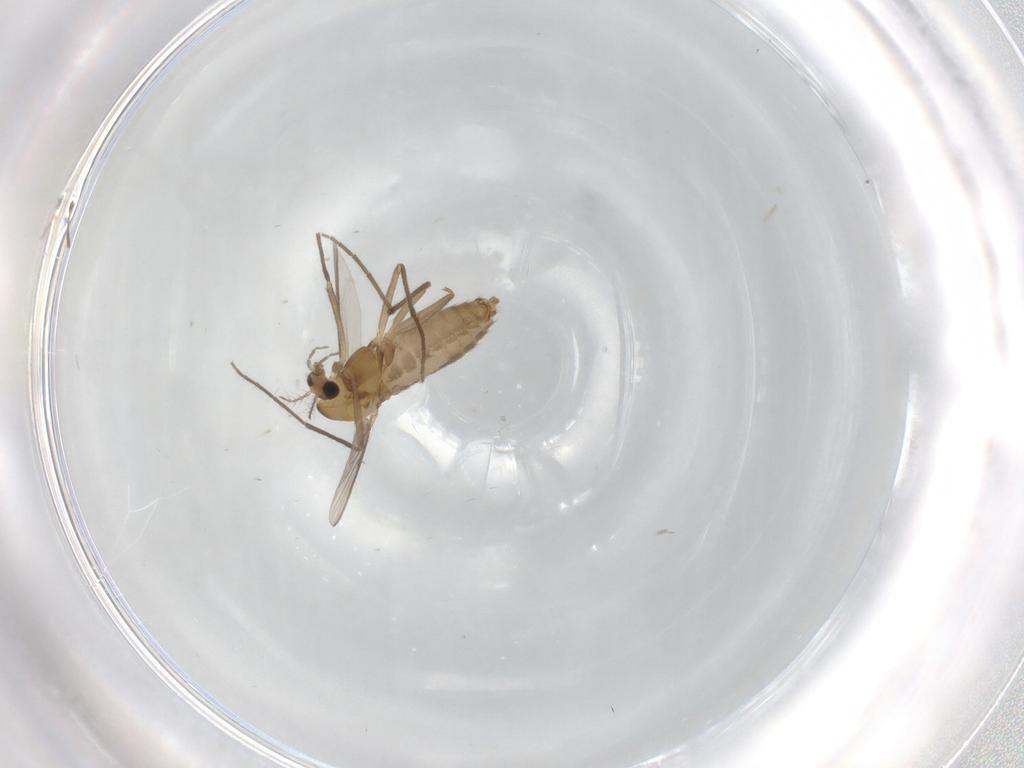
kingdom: Animalia
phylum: Arthropoda
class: Insecta
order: Diptera
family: Chironomidae
